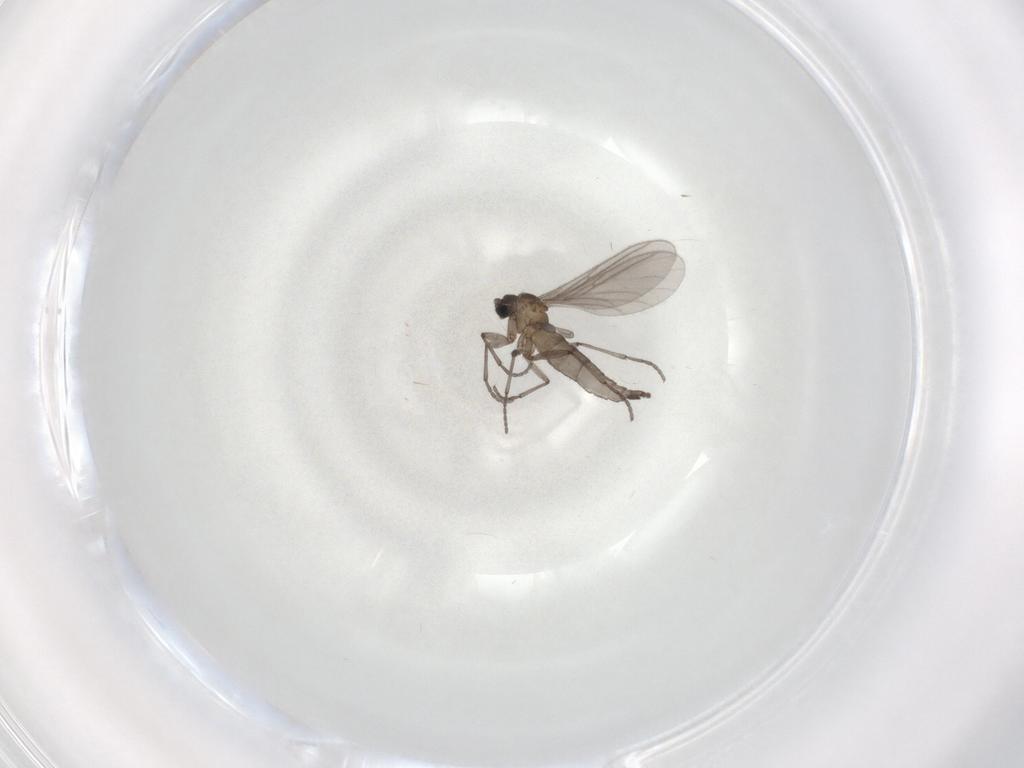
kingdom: Animalia
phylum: Arthropoda
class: Insecta
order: Diptera
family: Sciaridae
